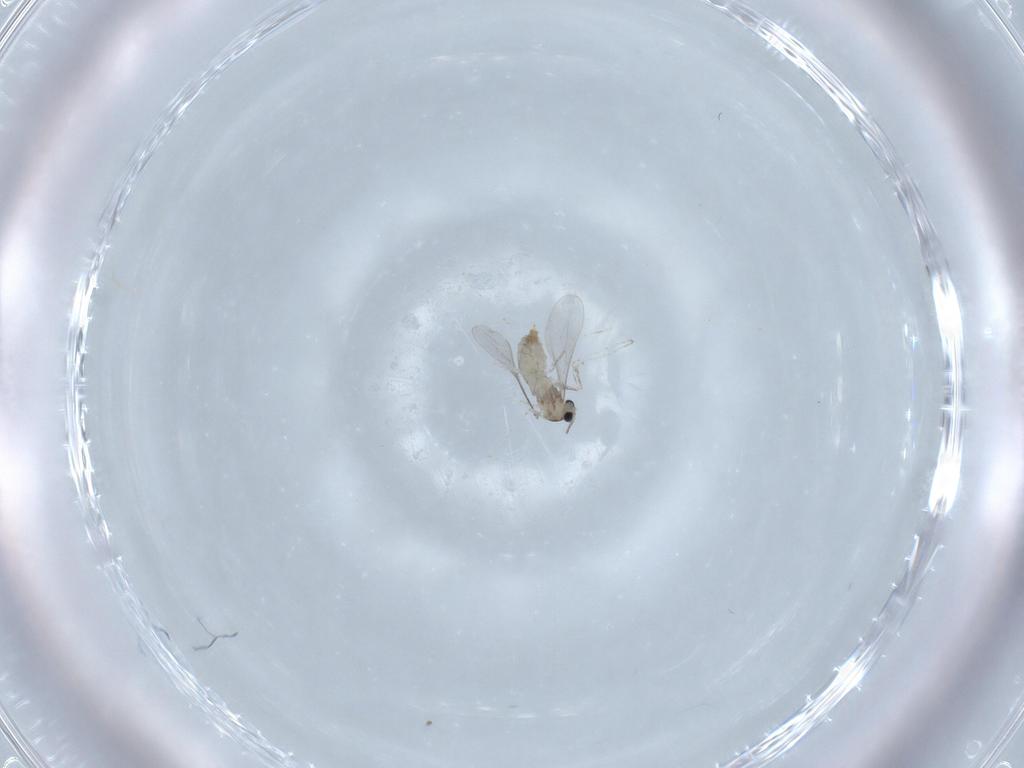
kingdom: Animalia
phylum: Arthropoda
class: Insecta
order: Diptera
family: Cecidomyiidae
